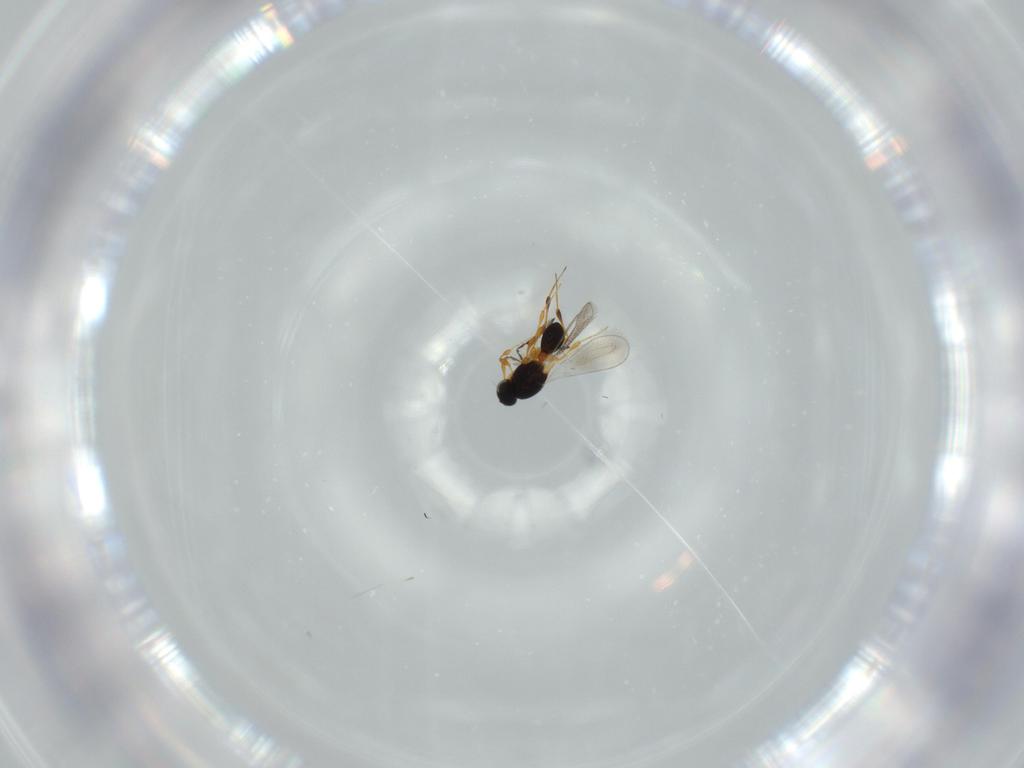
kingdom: Animalia
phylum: Arthropoda
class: Insecta
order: Hymenoptera
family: Platygastridae
